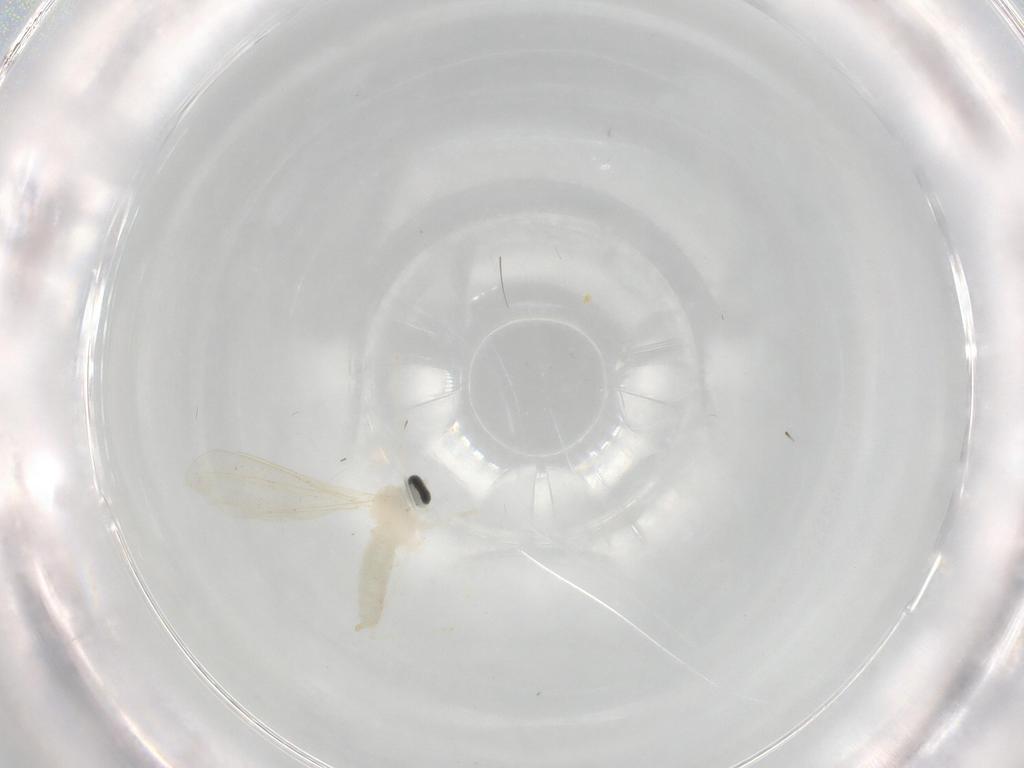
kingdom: Animalia
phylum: Arthropoda
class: Insecta
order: Diptera
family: Cecidomyiidae
